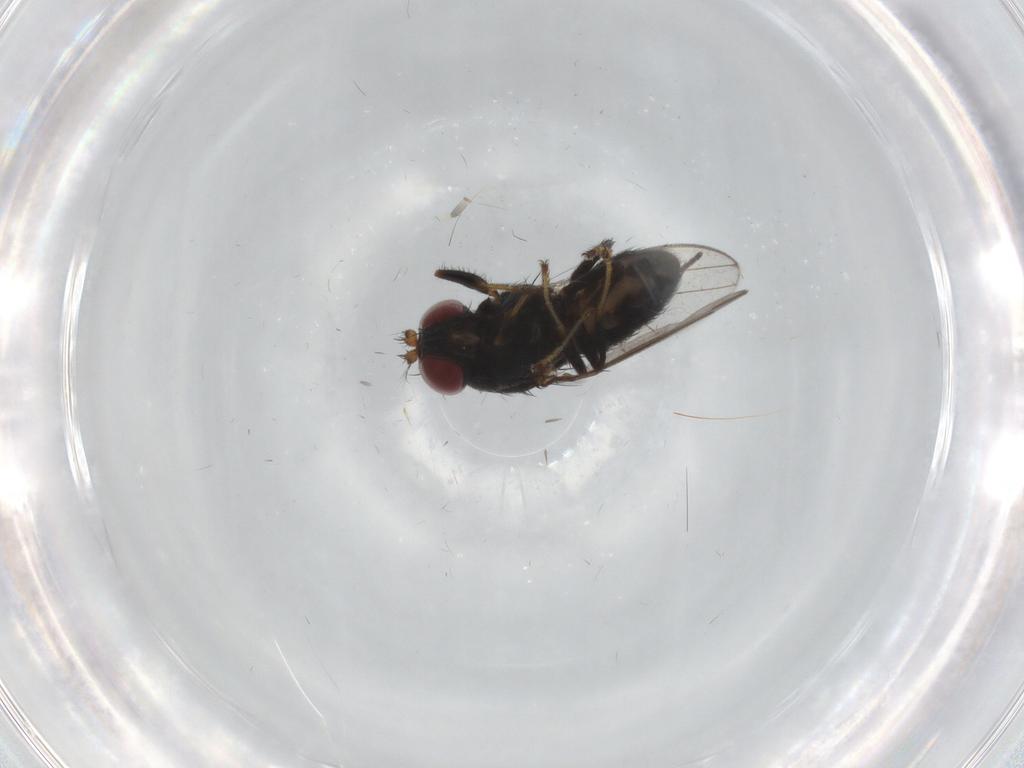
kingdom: Animalia
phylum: Arthropoda
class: Insecta
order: Diptera
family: Ephydridae
